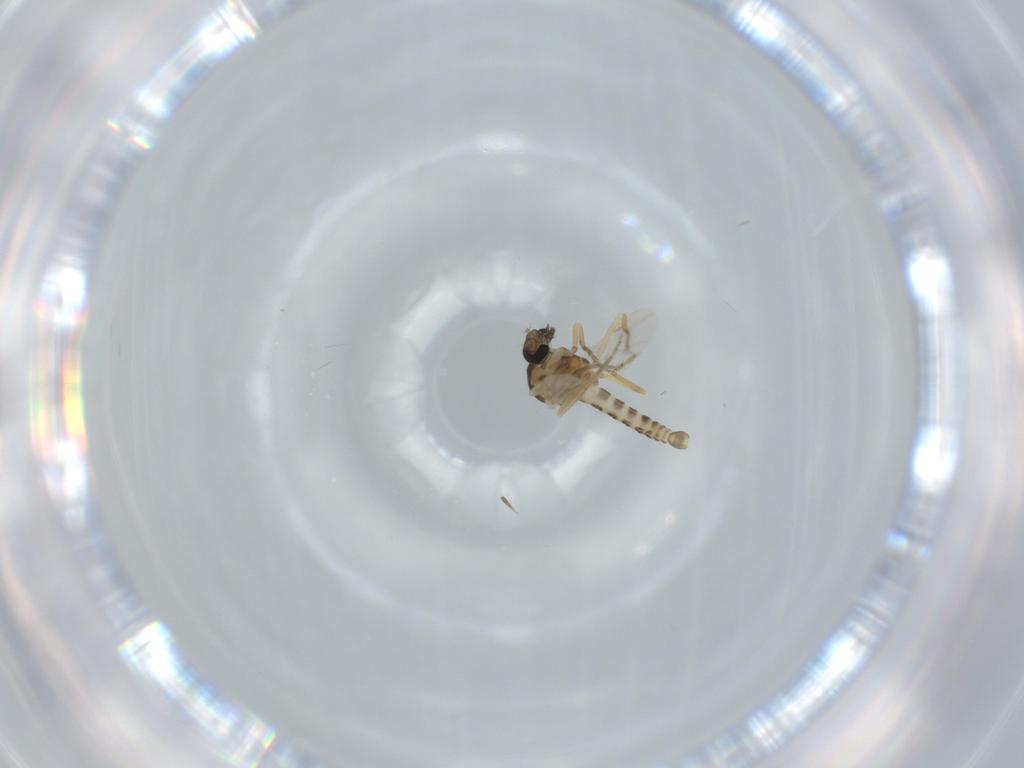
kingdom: Animalia
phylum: Arthropoda
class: Insecta
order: Diptera
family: Ceratopogonidae
